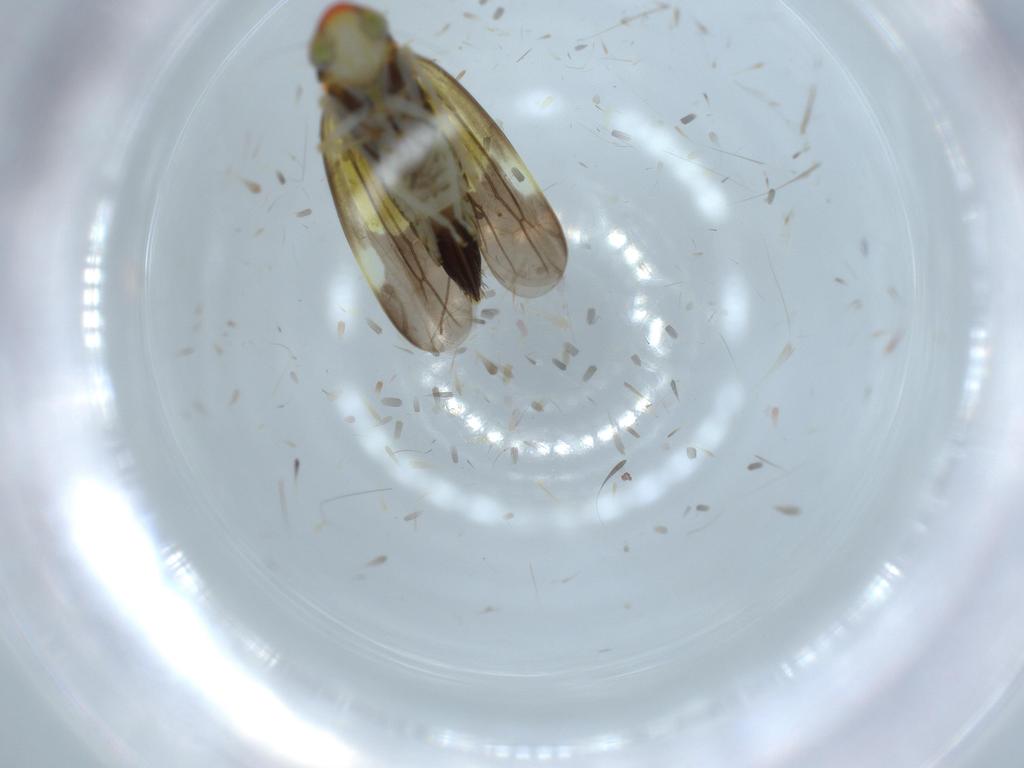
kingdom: Animalia
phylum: Arthropoda
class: Insecta
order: Hemiptera
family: Cicadellidae
